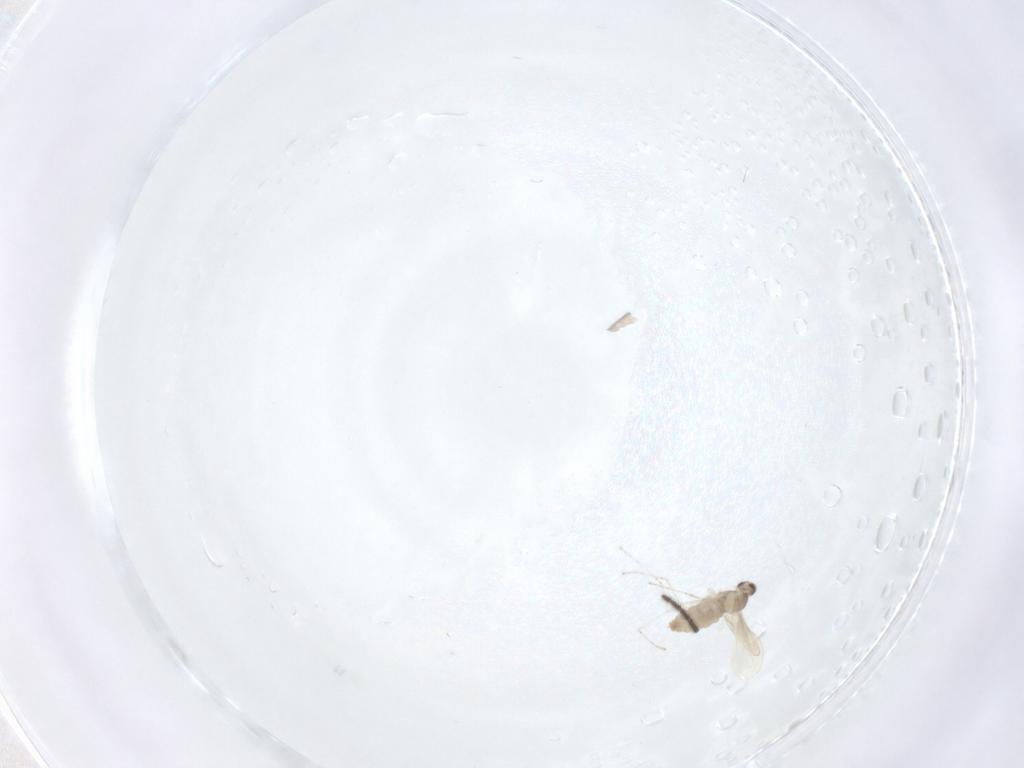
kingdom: Animalia
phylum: Arthropoda
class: Insecta
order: Diptera
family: Cecidomyiidae
